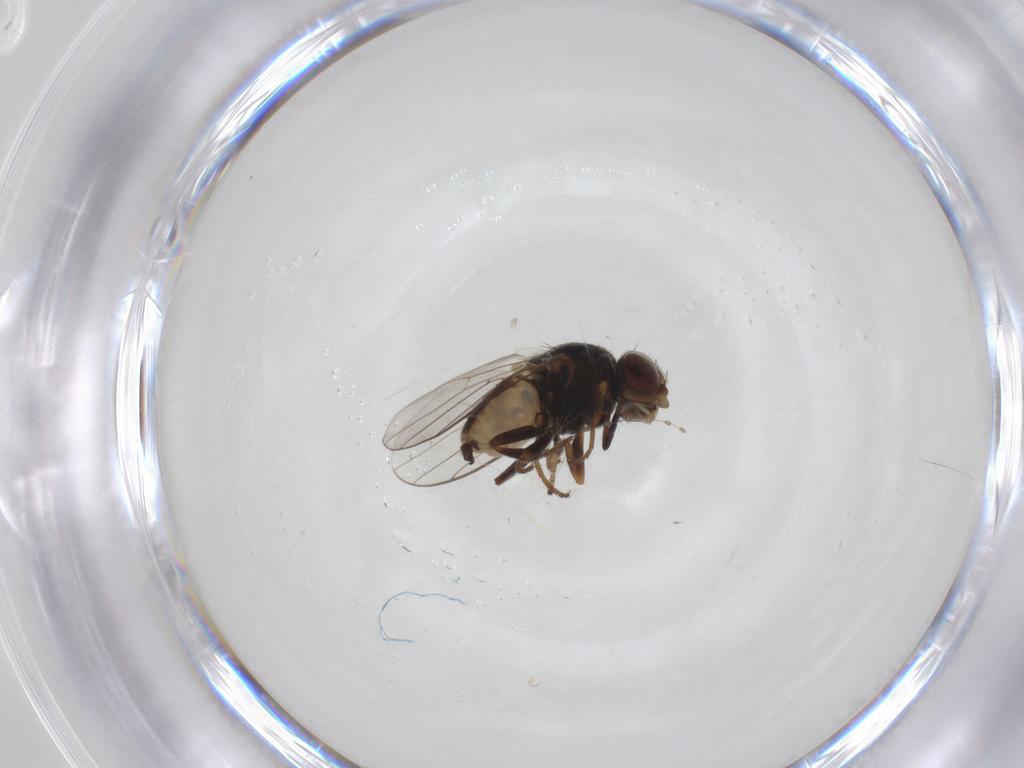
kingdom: Animalia
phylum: Arthropoda
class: Insecta
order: Diptera
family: Chloropidae
